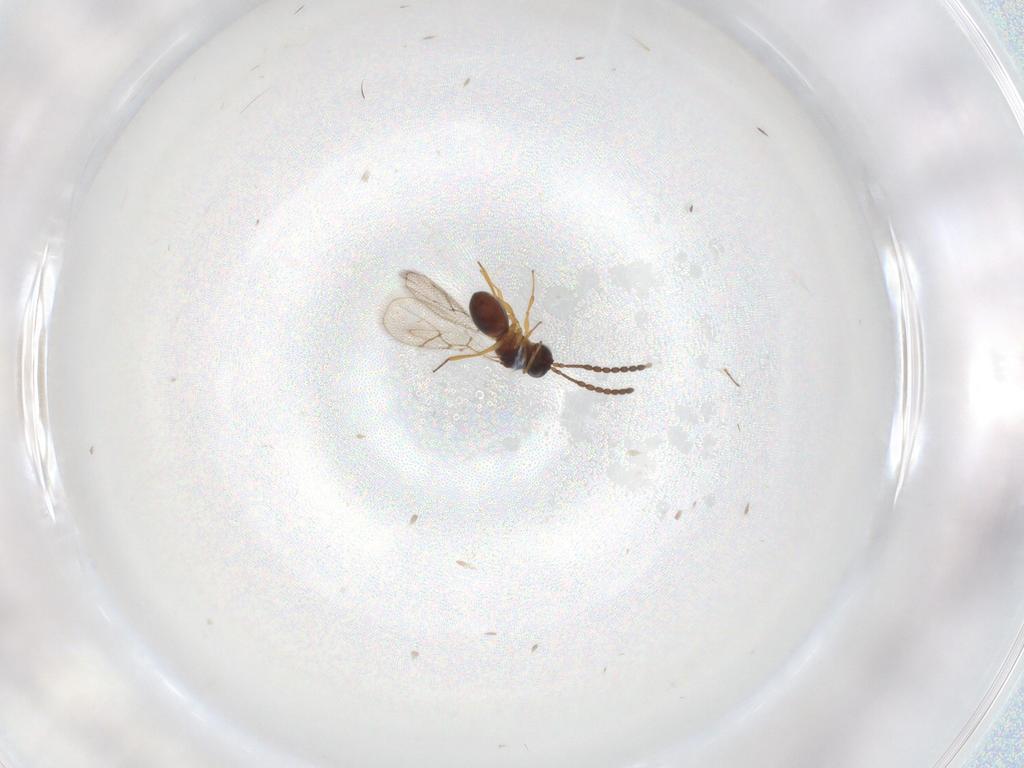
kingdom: Animalia
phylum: Arthropoda
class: Insecta
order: Hymenoptera
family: Figitidae
